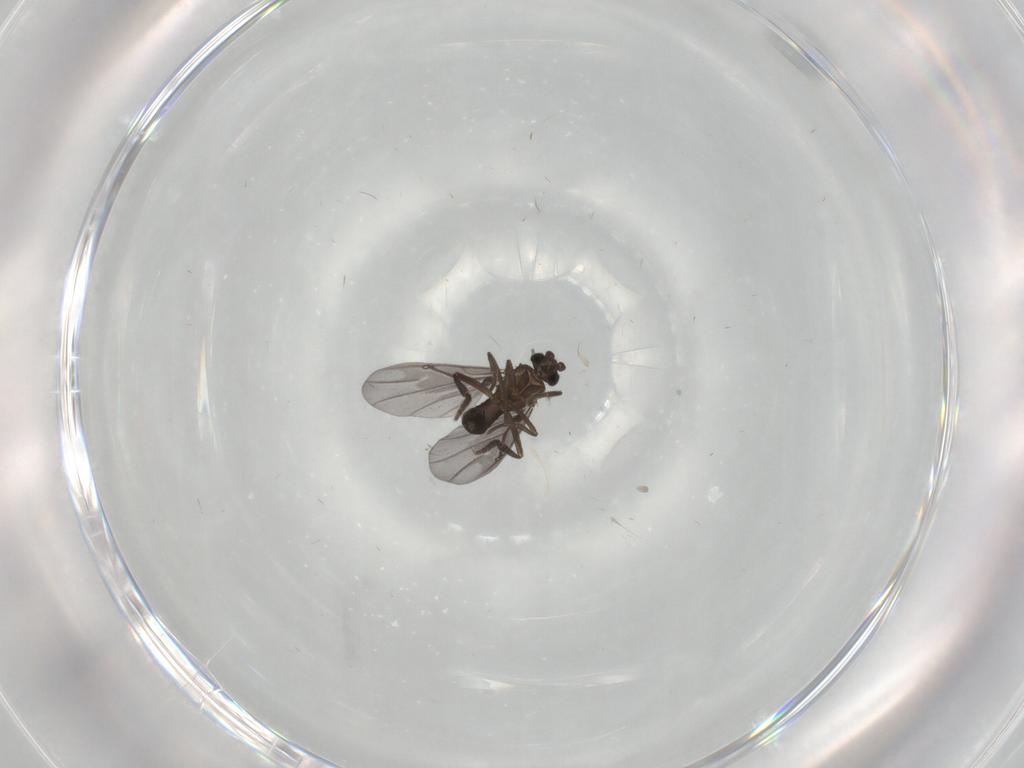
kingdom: Animalia
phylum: Arthropoda
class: Insecta
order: Diptera
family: Phoridae
